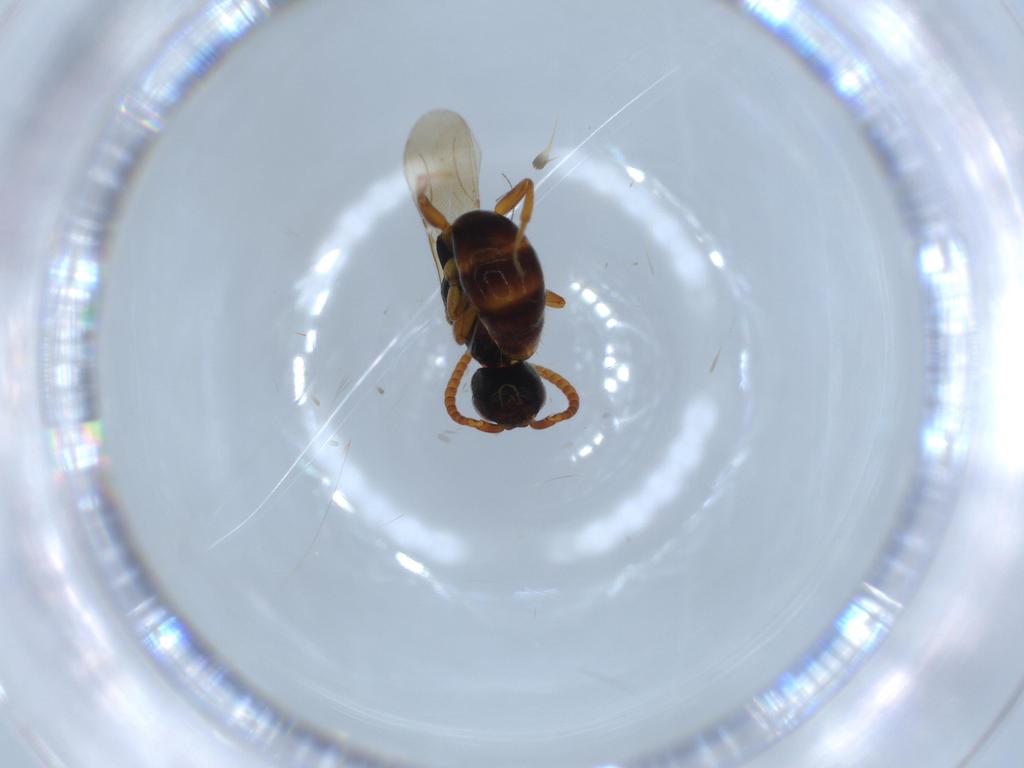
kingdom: Animalia
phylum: Arthropoda
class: Insecta
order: Hymenoptera
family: Bethylidae
